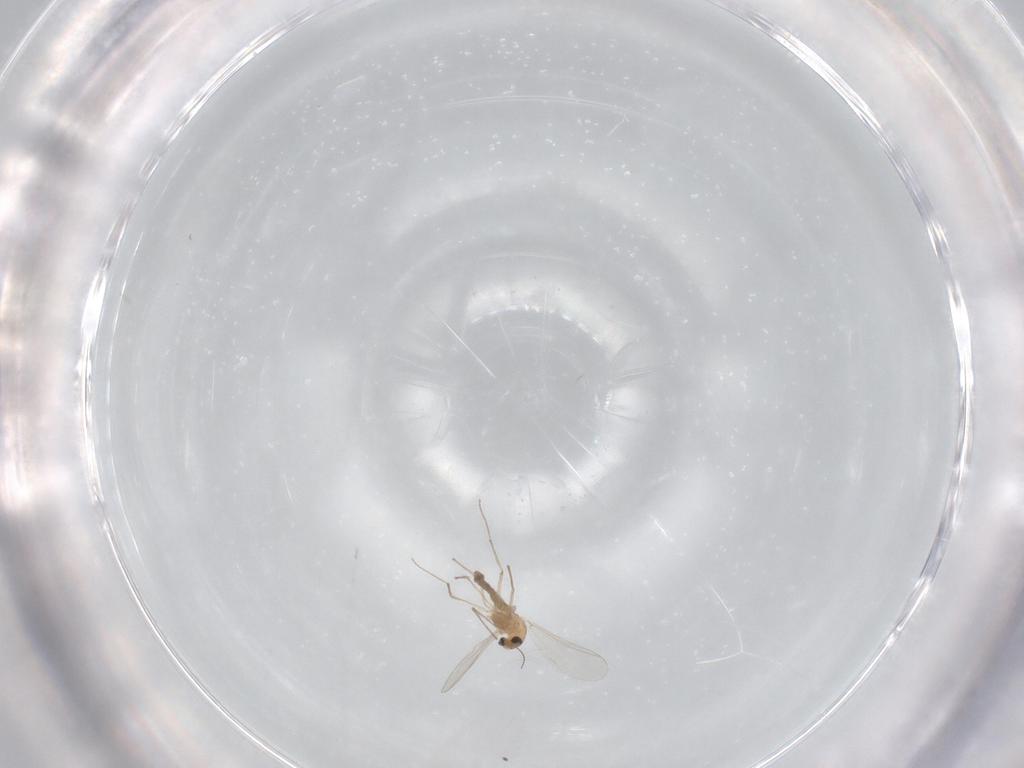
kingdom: Animalia
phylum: Arthropoda
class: Insecta
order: Diptera
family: Chironomidae
